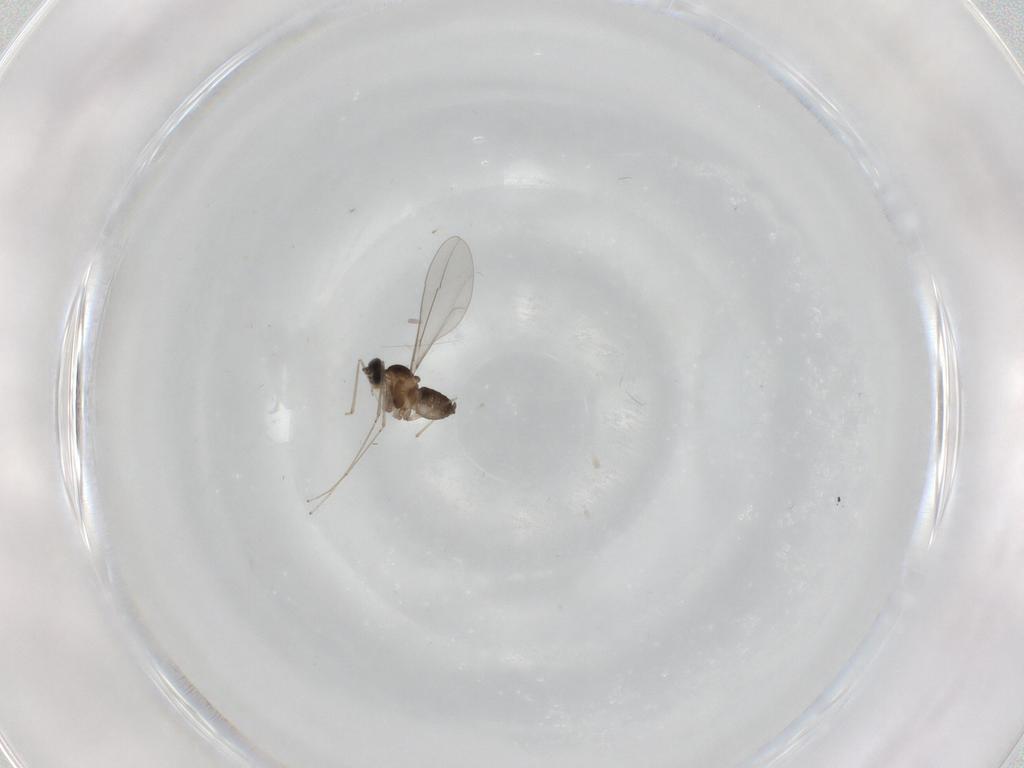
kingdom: Animalia
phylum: Arthropoda
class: Insecta
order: Diptera
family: Cecidomyiidae
